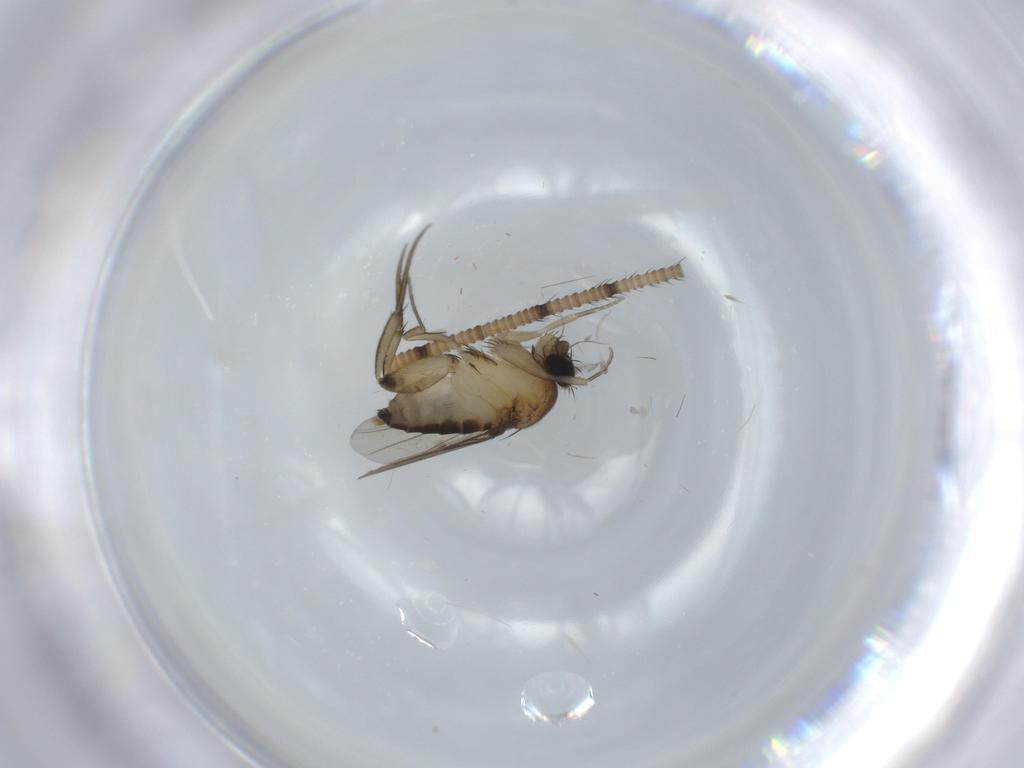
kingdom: Animalia
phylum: Arthropoda
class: Insecta
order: Diptera
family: Phoridae
